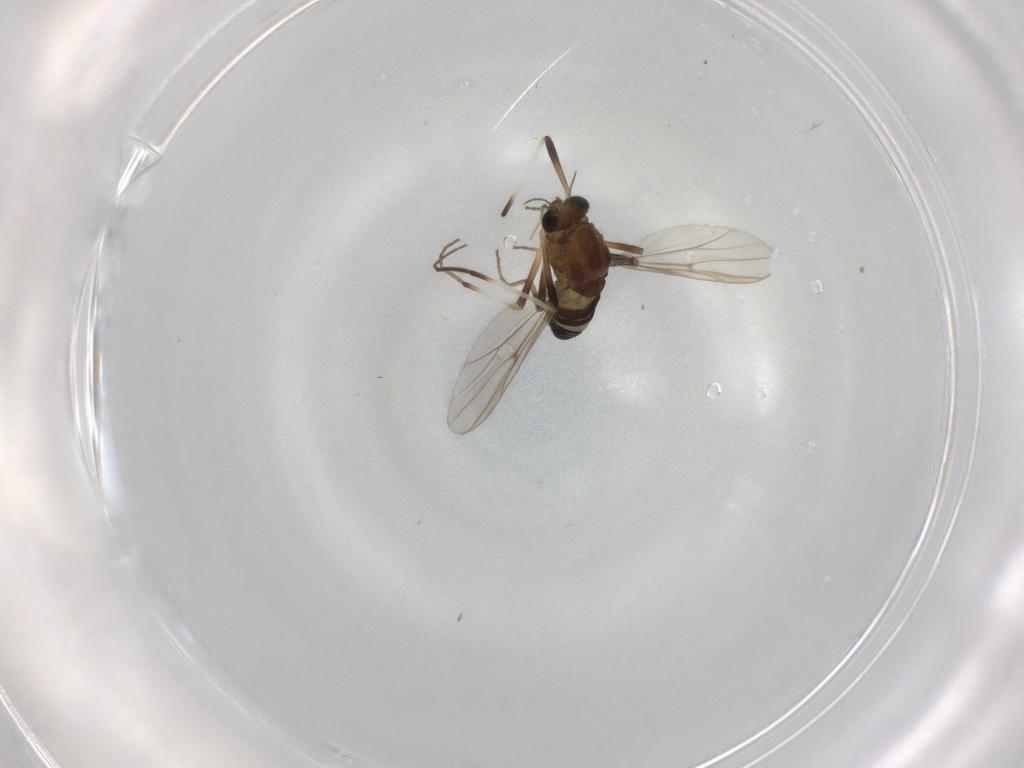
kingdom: Animalia
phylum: Arthropoda
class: Insecta
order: Diptera
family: Chironomidae
